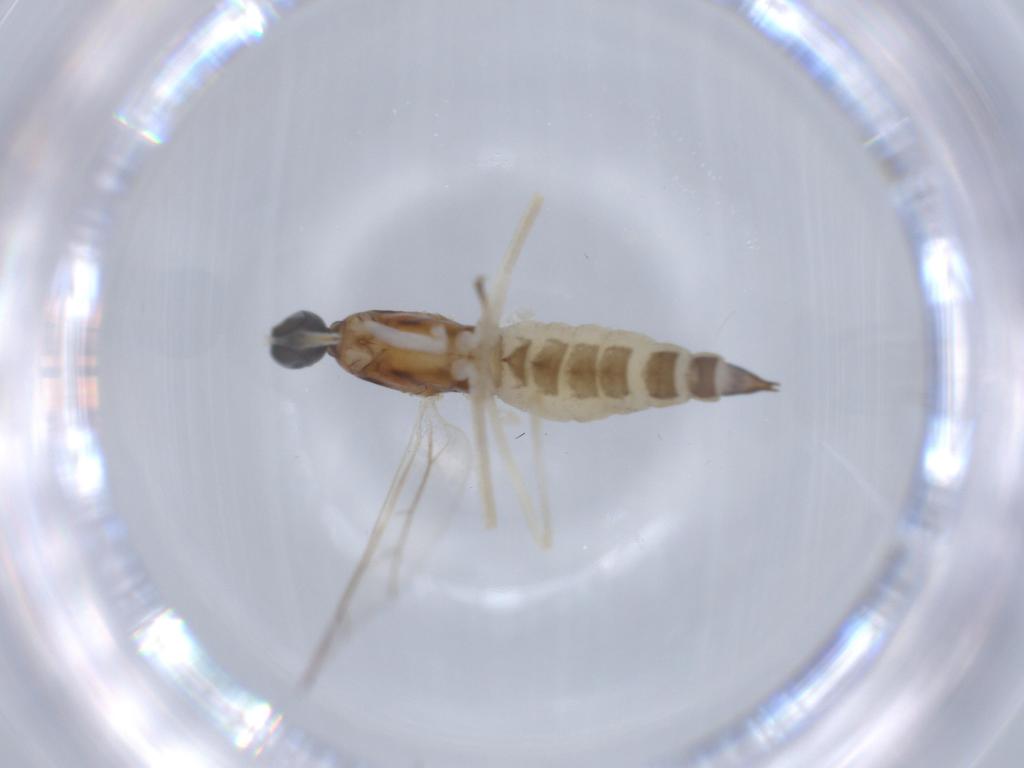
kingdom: Animalia
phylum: Arthropoda
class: Insecta
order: Diptera
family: Empididae
